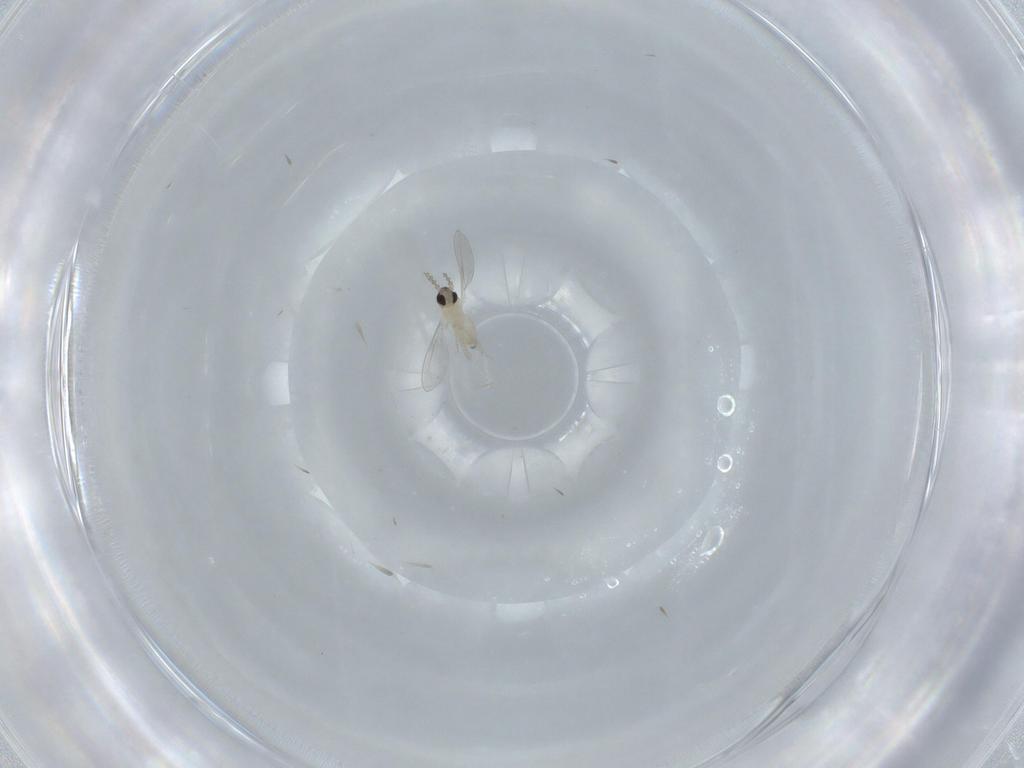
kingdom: Animalia
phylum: Arthropoda
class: Insecta
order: Diptera
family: Cecidomyiidae
